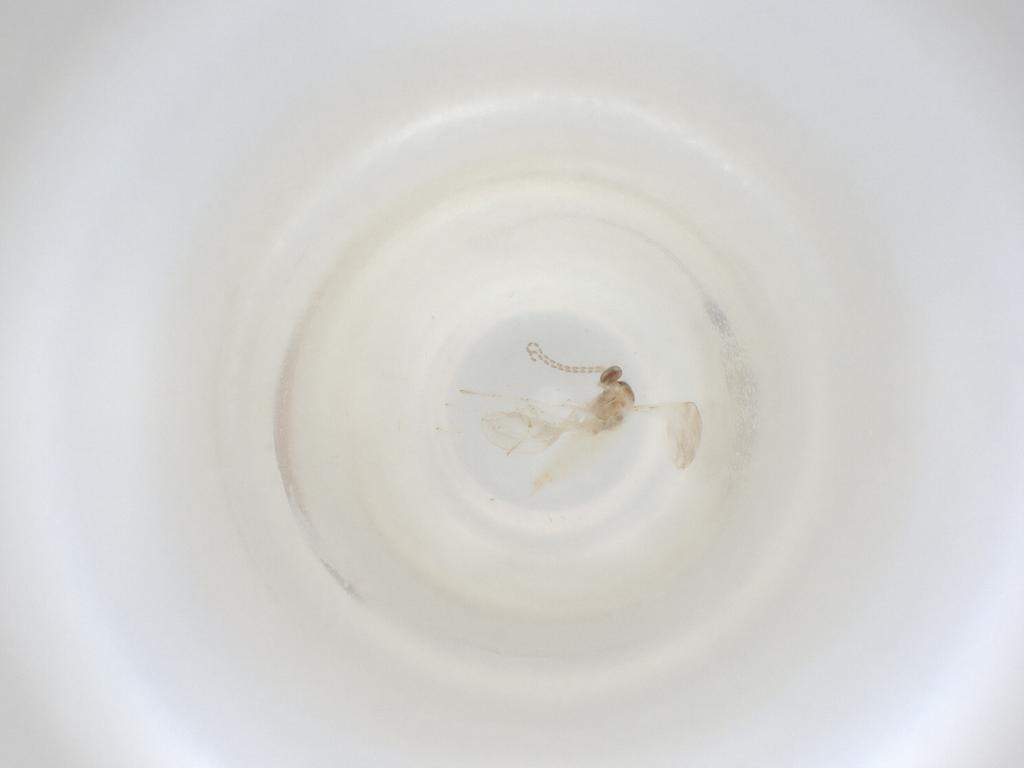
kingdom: Animalia
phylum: Arthropoda
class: Insecta
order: Diptera
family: Cecidomyiidae
